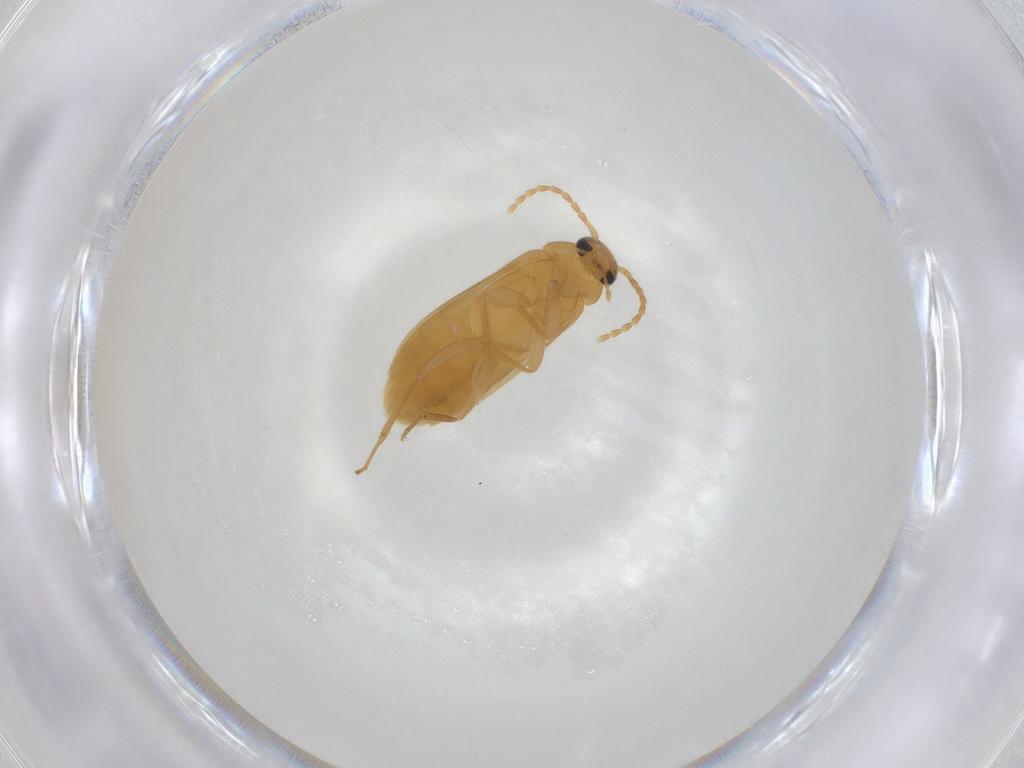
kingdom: Animalia
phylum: Arthropoda
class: Insecta
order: Coleoptera
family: Scraptiidae
